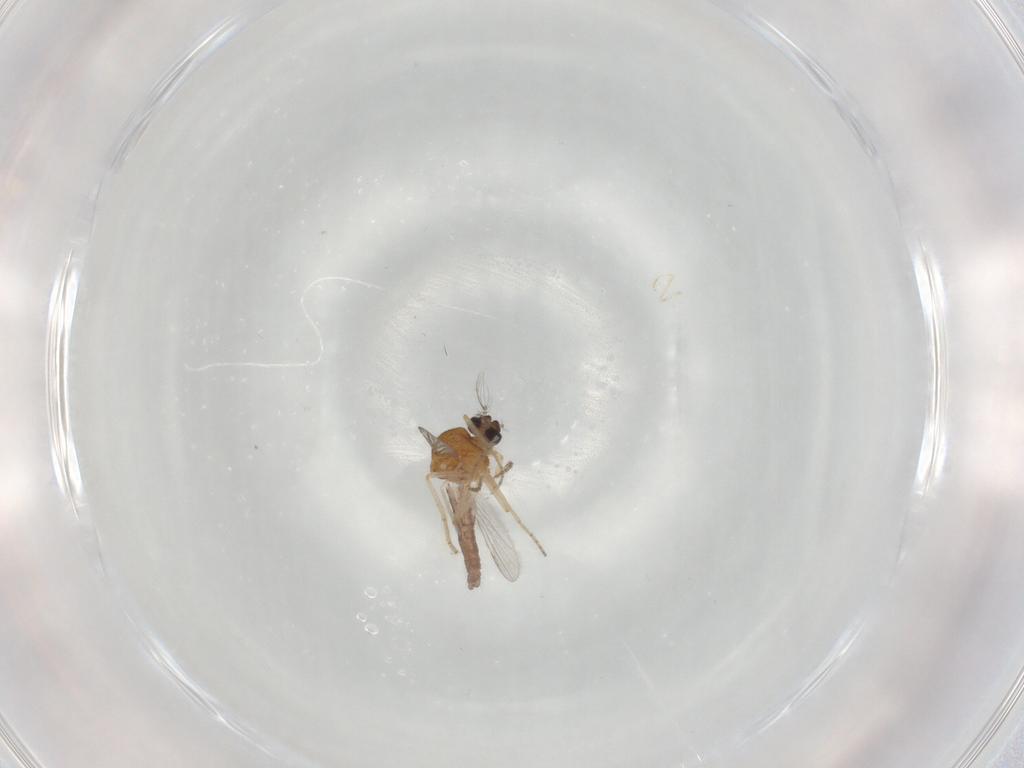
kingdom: Animalia
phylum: Arthropoda
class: Insecta
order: Diptera
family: Cecidomyiidae
